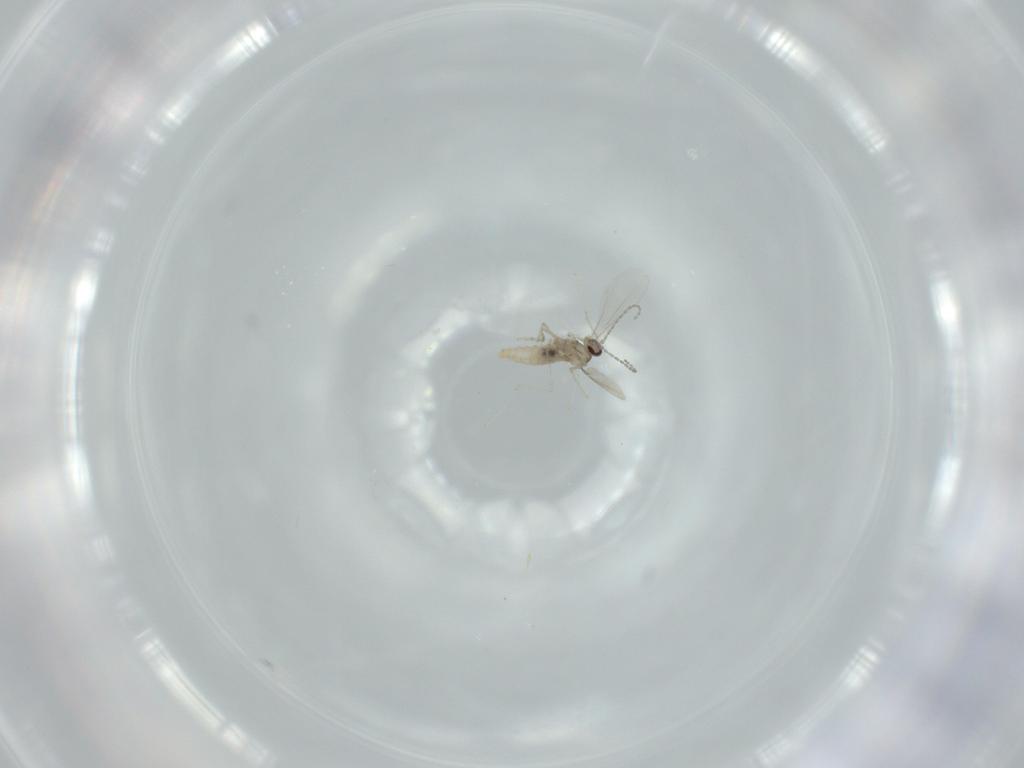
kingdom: Animalia
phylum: Arthropoda
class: Insecta
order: Diptera
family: Cecidomyiidae
